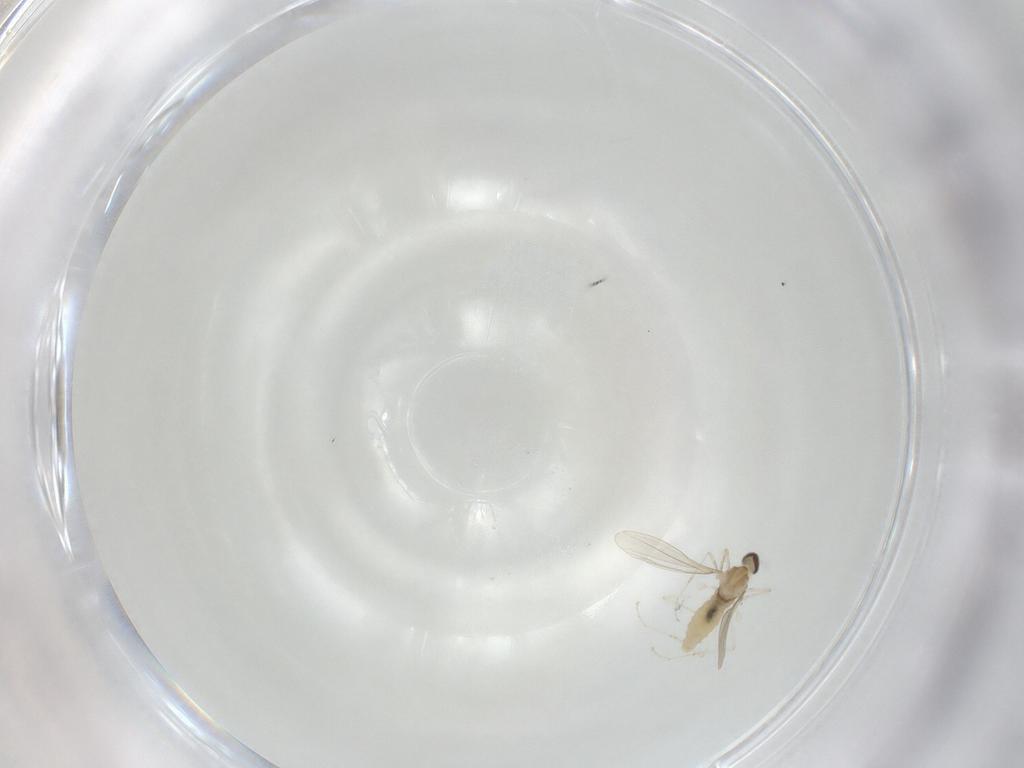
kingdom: Animalia
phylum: Arthropoda
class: Insecta
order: Diptera
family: Cecidomyiidae
